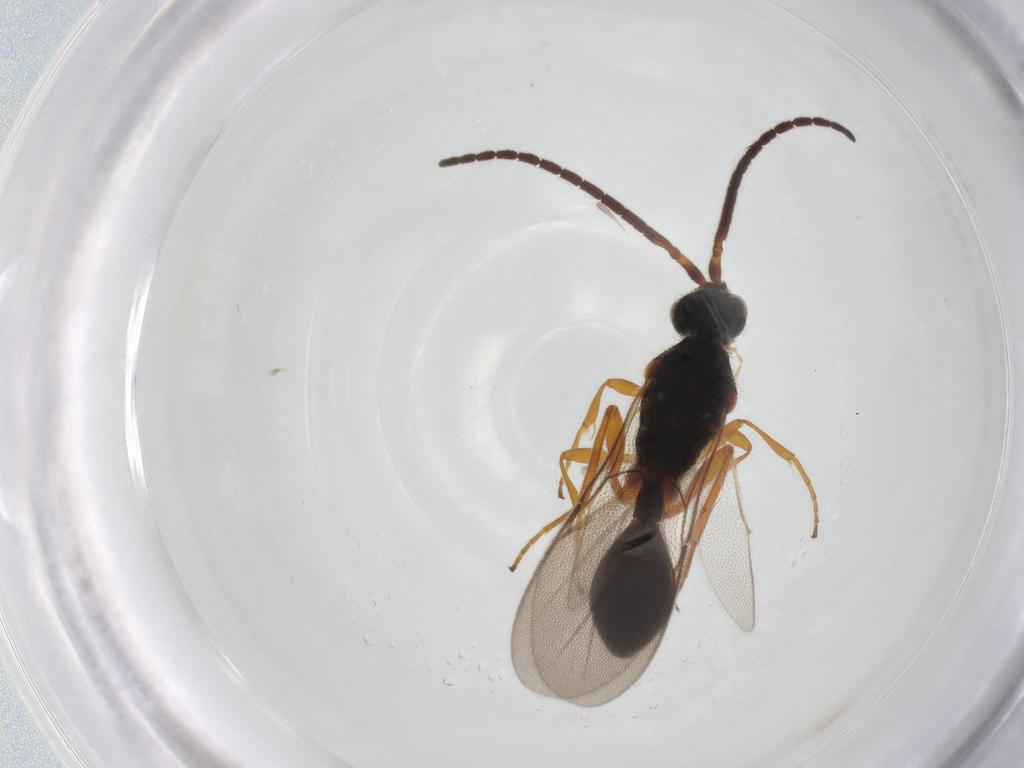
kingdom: Animalia
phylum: Arthropoda
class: Insecta
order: Hymenoptera
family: Diapriidae
